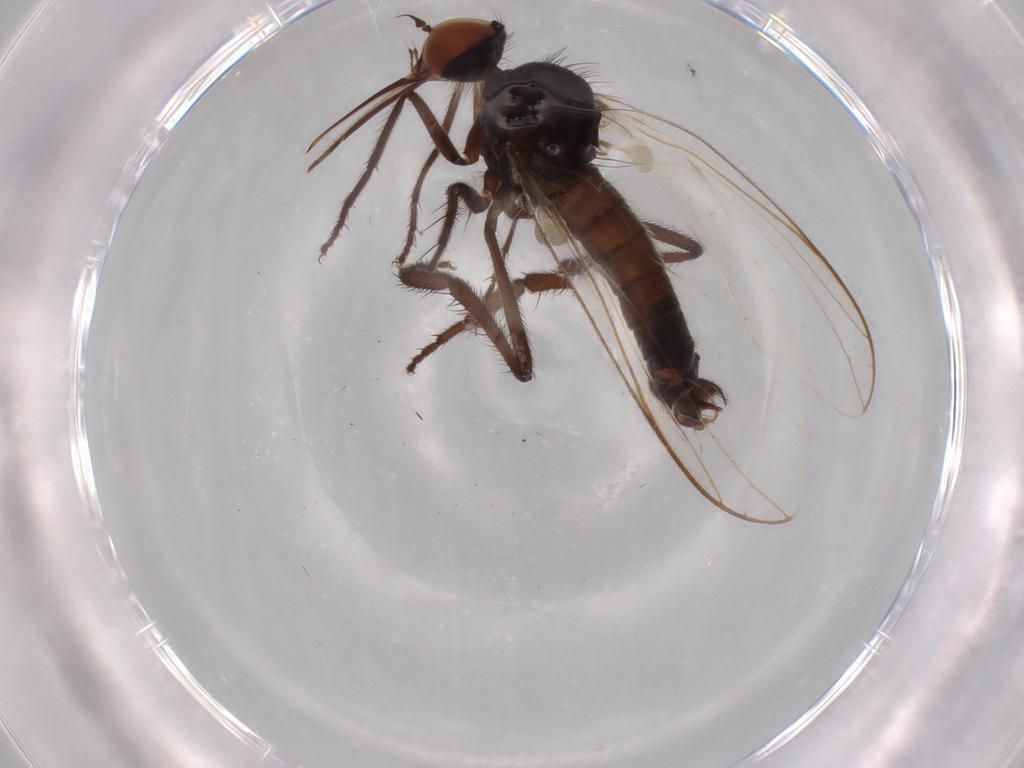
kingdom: Animalia
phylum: Arthropoda
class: Insecta
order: Diptera
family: Empididae
